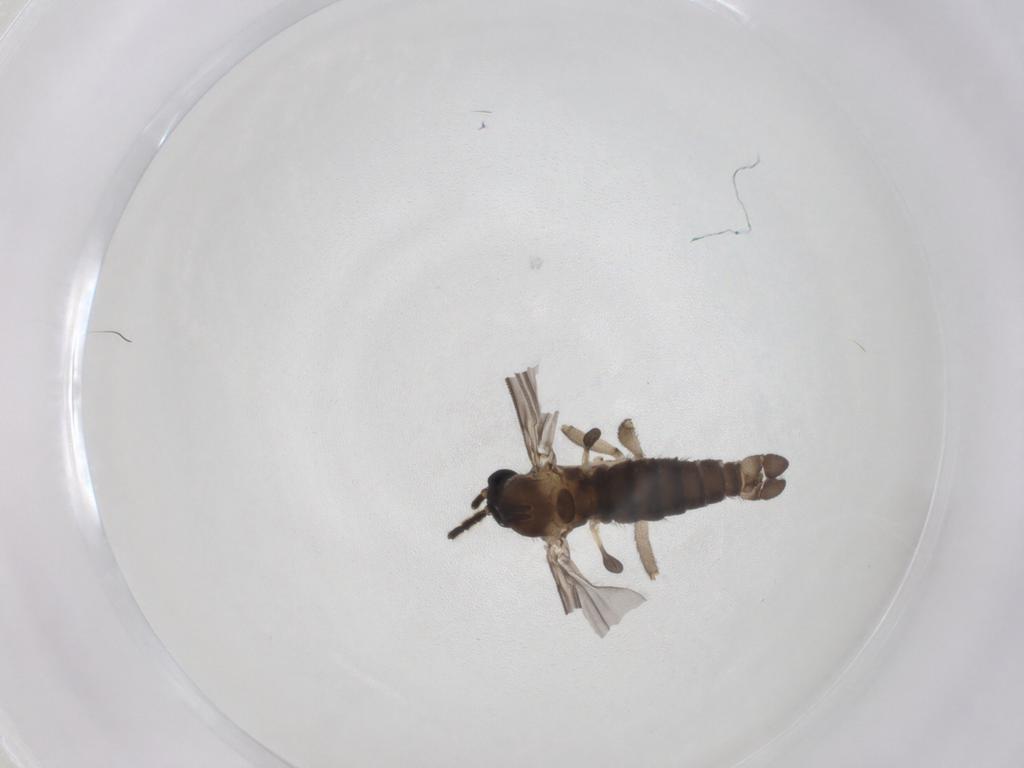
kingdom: Animalia
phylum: Arthropoda
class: Insecta
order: Diptera
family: Sciaridae
